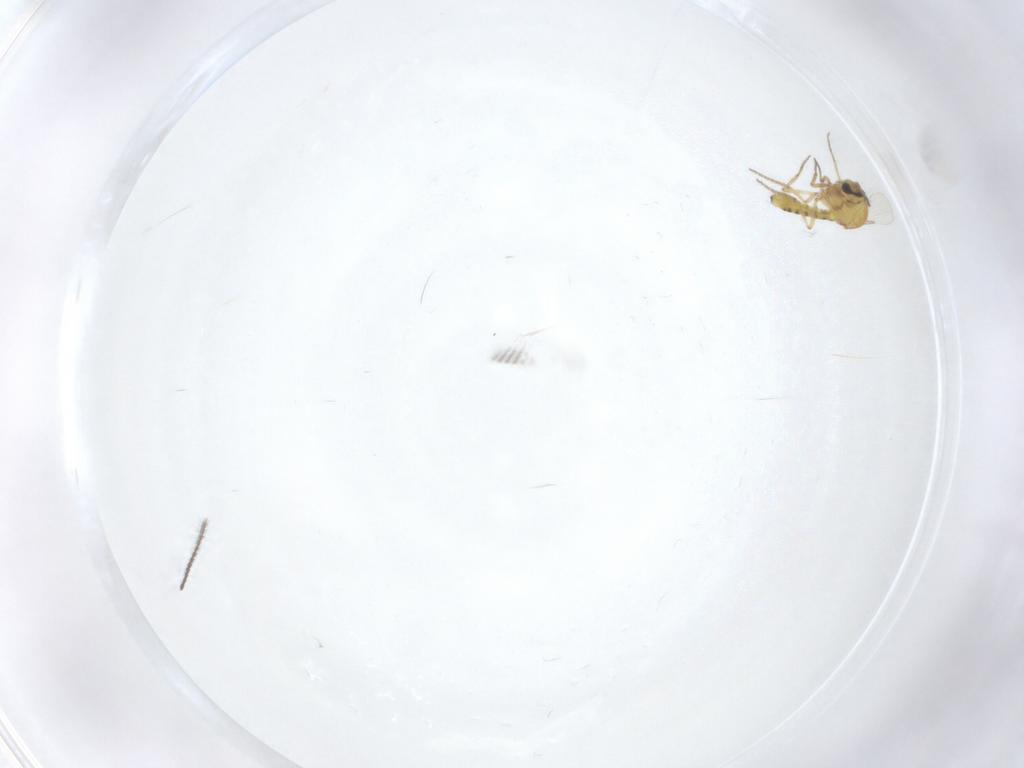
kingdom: Animalia
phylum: Arthropoda
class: Insecta
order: Diptera
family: Ceratopogonidae
